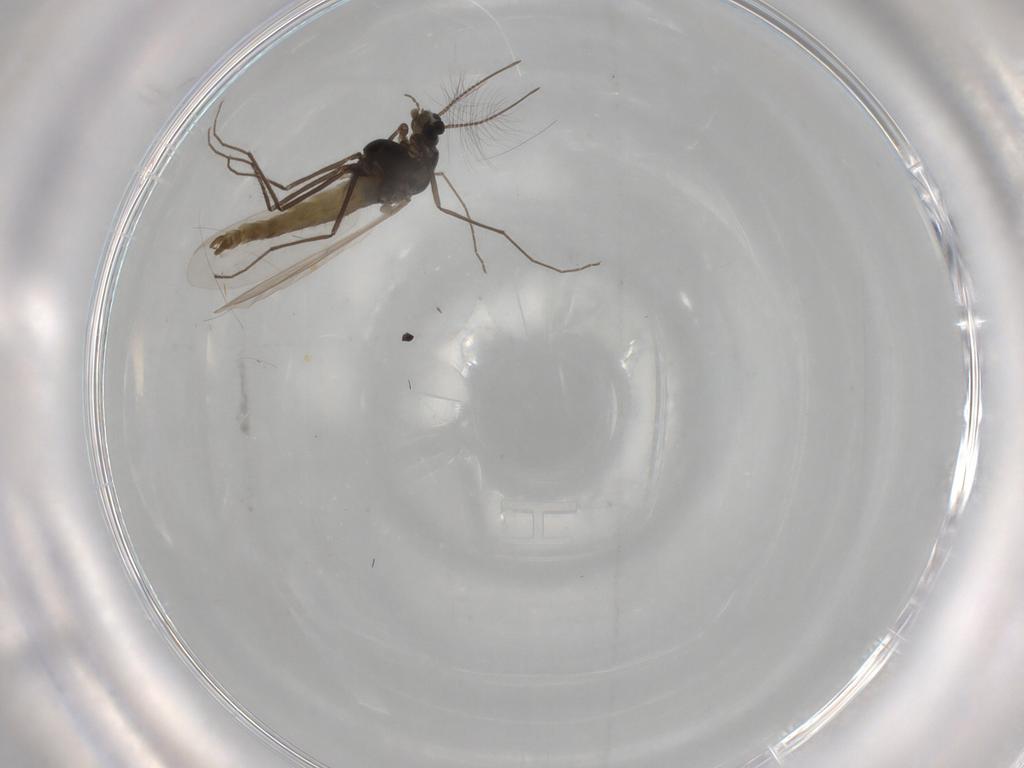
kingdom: Animalia
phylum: Arthropoda
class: Insecta
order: Diptera
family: Chironomidae
